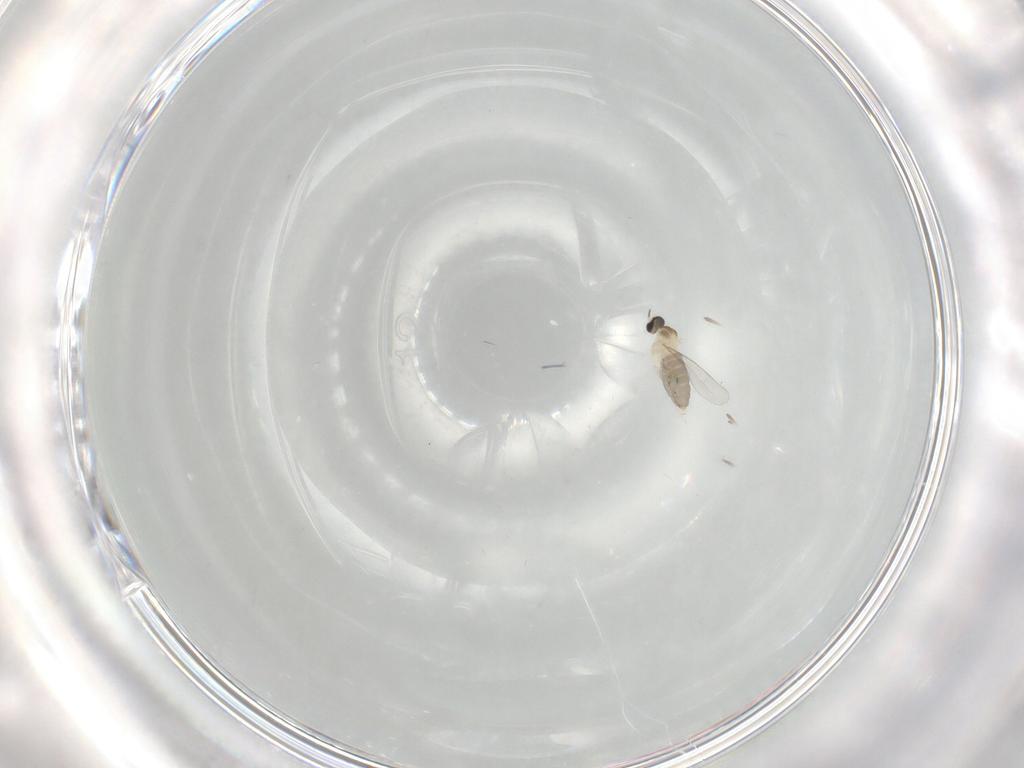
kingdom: Animalia
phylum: Arthropoda
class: Insecta
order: Diptera
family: Cecidomyiidae
